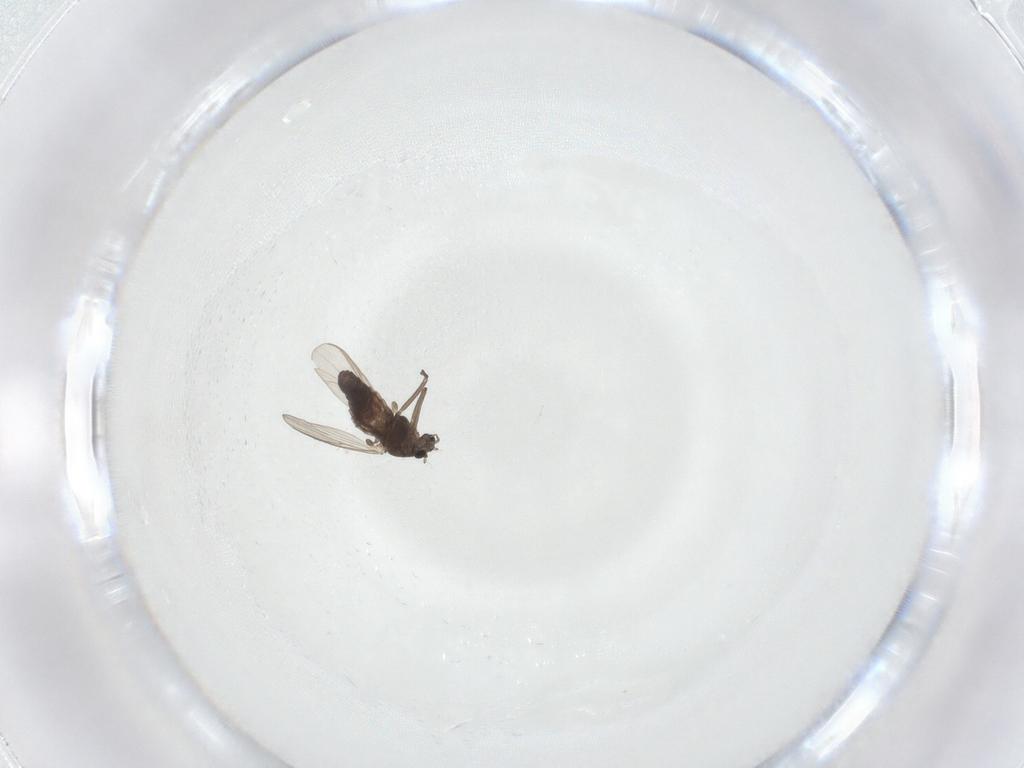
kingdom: Animalia
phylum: Arthropoda
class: Insecta
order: Diptera
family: Chironomidae
